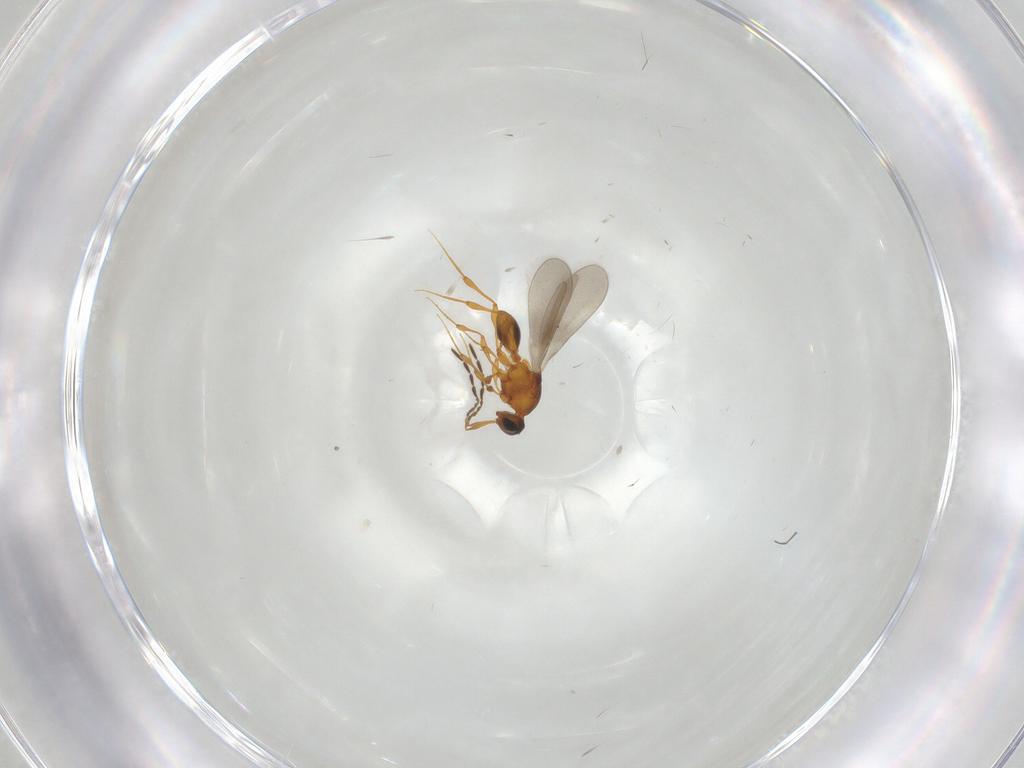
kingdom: Animalia
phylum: Arthropoda
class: Insecta
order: Hymenoptera
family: Platygastridae
